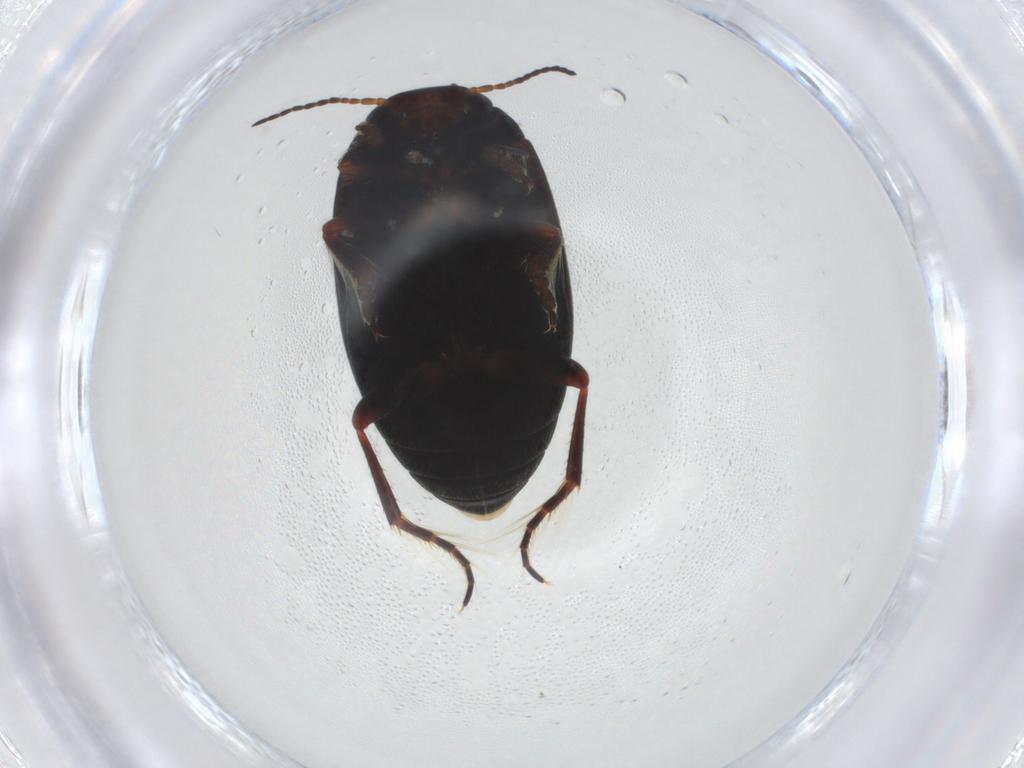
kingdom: Animalia
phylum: Arthropoda
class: Insecta
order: Coleoptera
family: Dytiscidae
